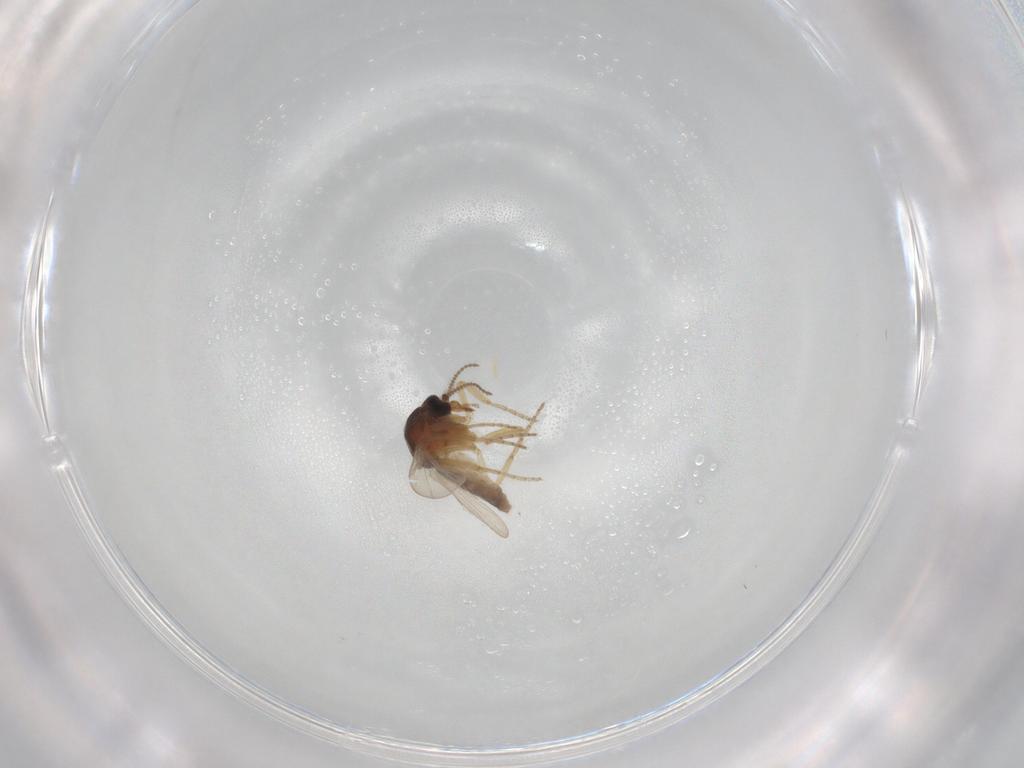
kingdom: Animalia
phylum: Arthropoda
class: Insecta
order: Diptera
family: Ceratopogonidae
